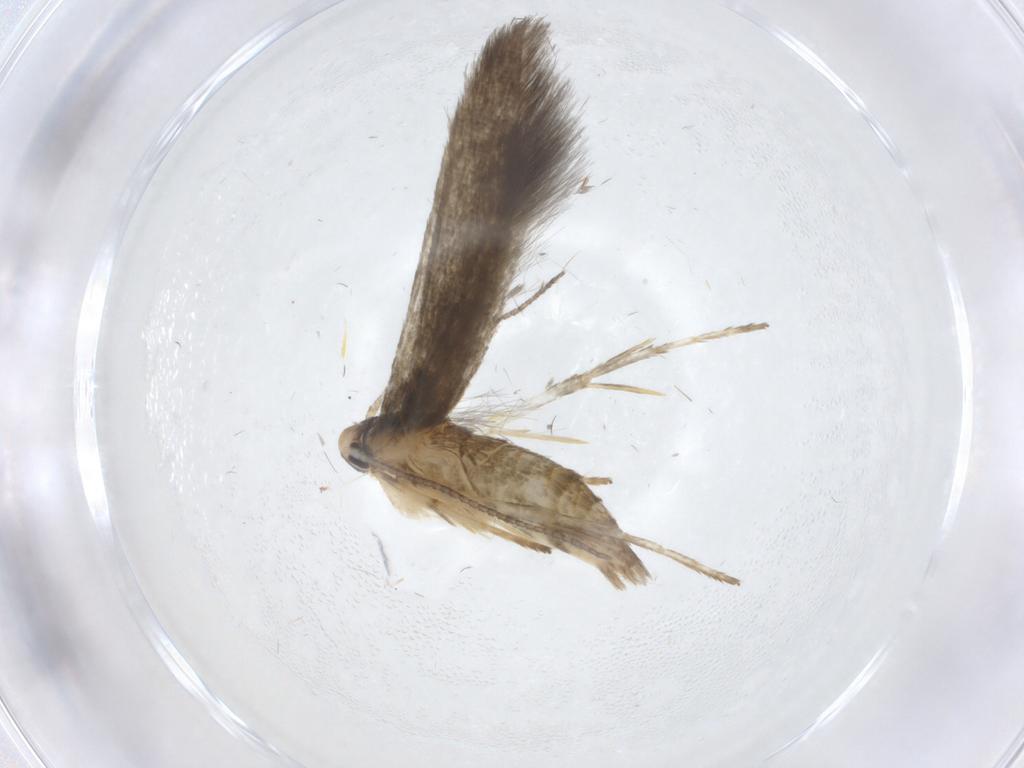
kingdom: Animalia
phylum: Arthropoda
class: Insecta
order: Lepidoptera
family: Stathmopodidae
